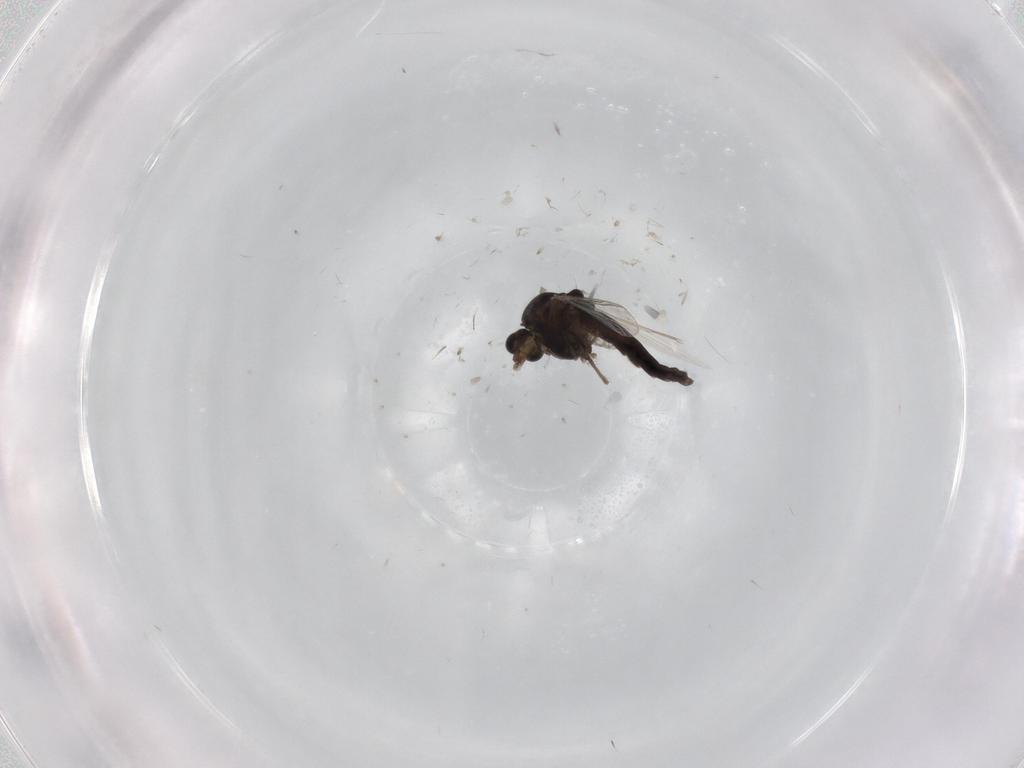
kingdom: Animalia
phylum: Arthropoda
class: Insecta
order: Diptera
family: Chironomidae
